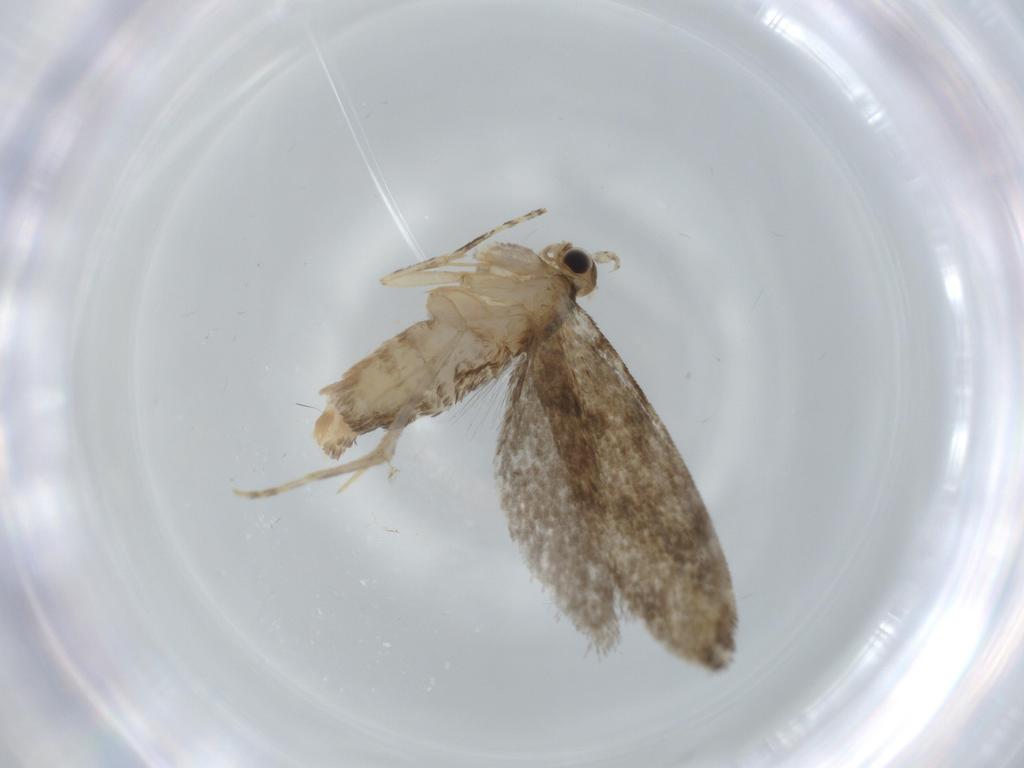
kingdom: Animalia
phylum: Arthropoda
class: Insecta
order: Lepidoptera
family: Tineidae
